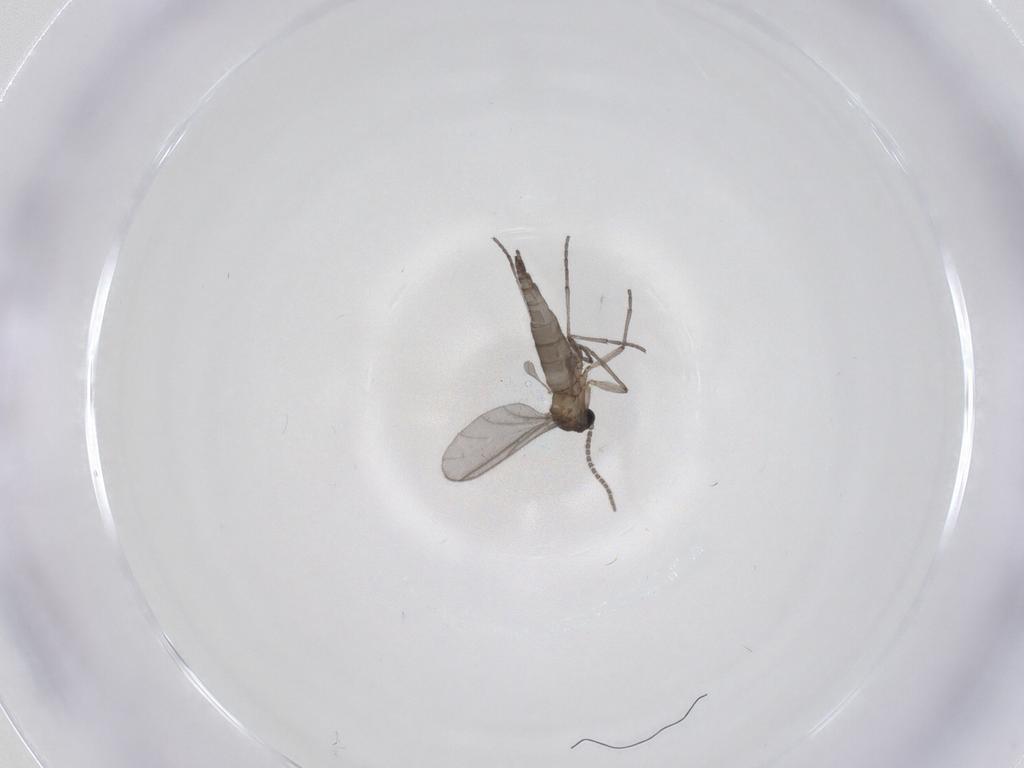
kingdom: Animalia
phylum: Arthropoda
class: Insecta
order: Diptera
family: Sciaridae
